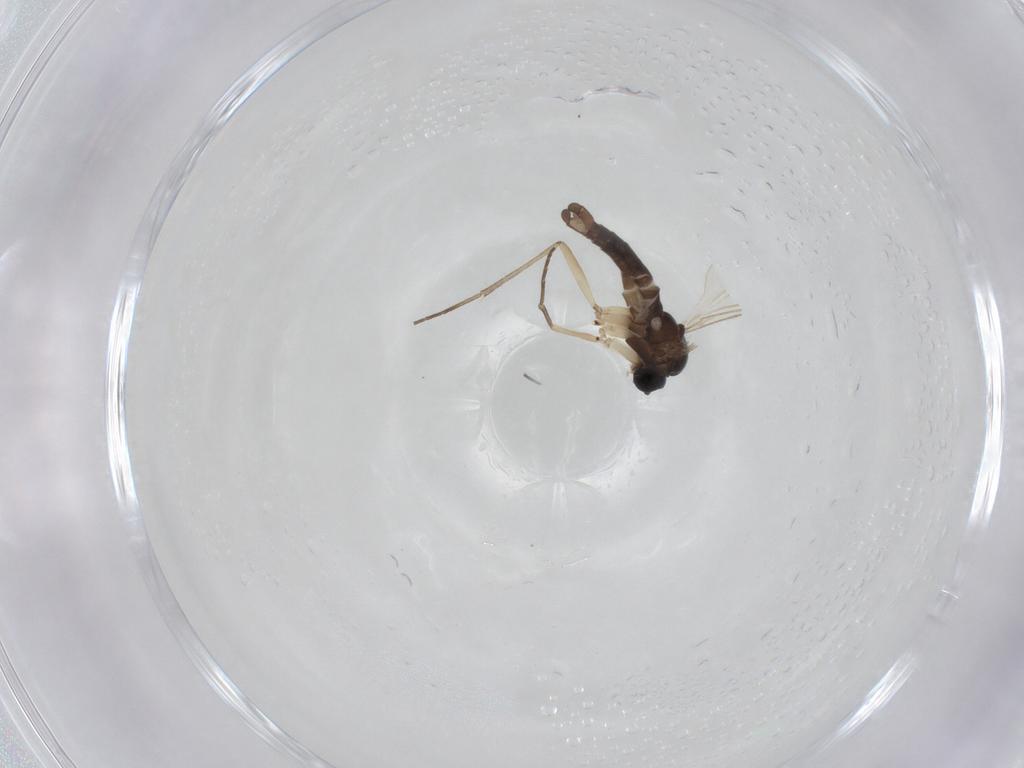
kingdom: Animalia
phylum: Arthropoda
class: Insecta
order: Diptera
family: Sciaridae
